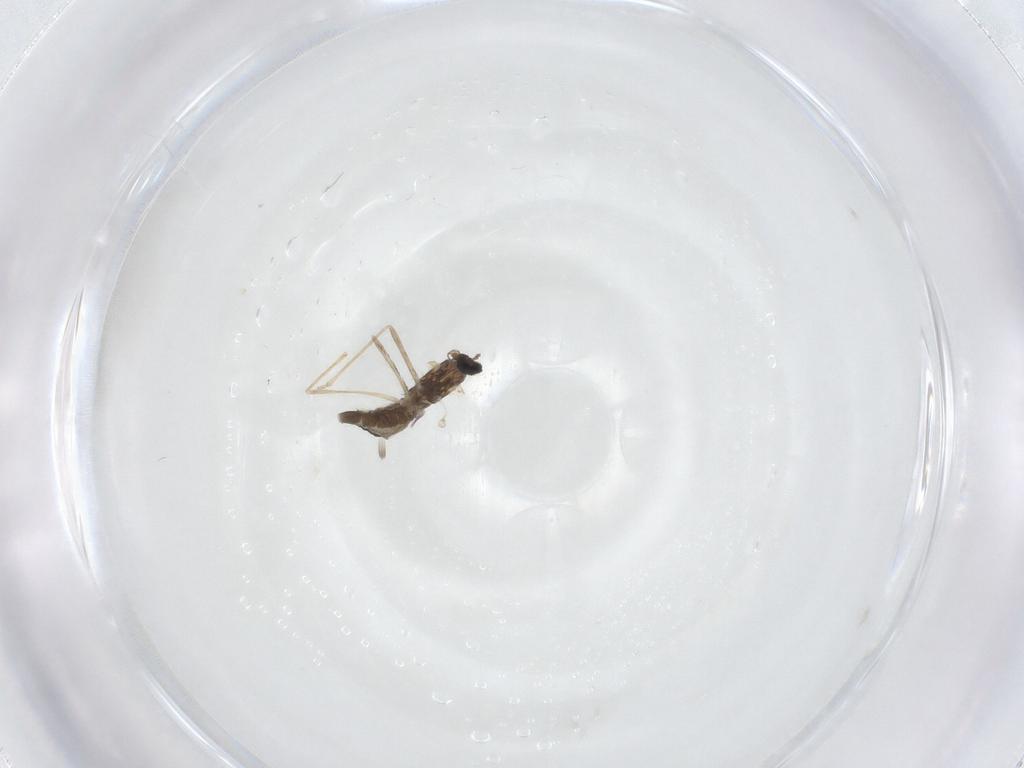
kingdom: Animalia
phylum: Arthropoda
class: Insecta
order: Diptera
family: Cecidomyiidae
